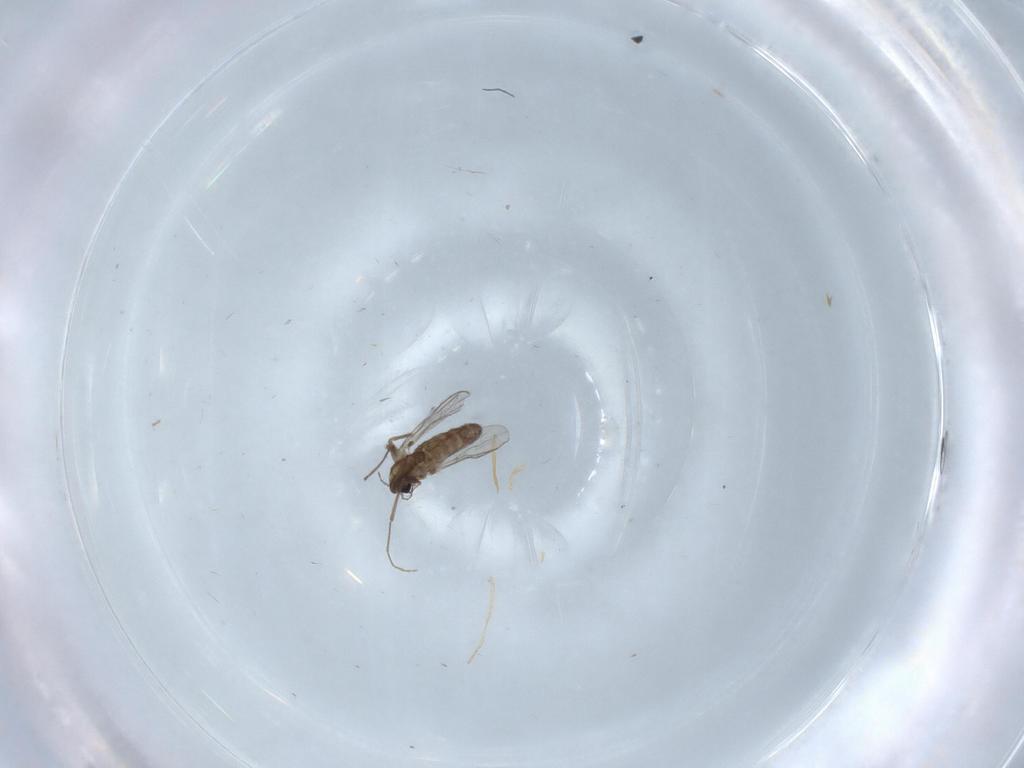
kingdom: Animalia
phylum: Arthropoda
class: Insecta
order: Diptera
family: Chironomidae
